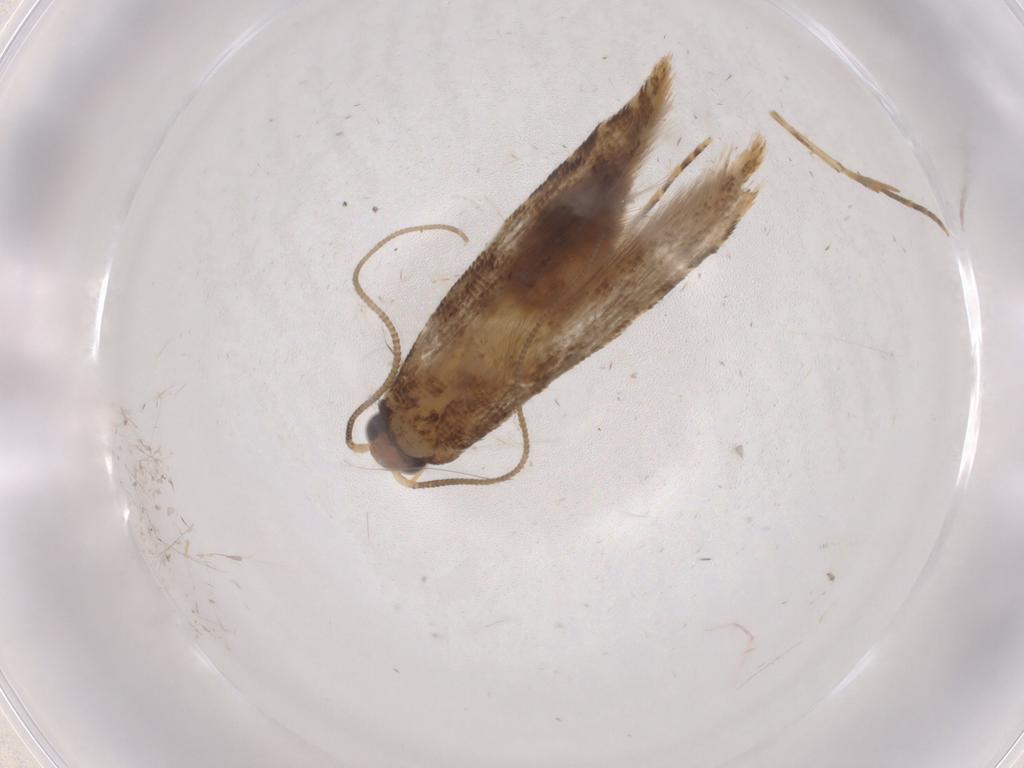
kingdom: Animalia
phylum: Arthropoda
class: Insecta
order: Lepidoptera
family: Tineidae
